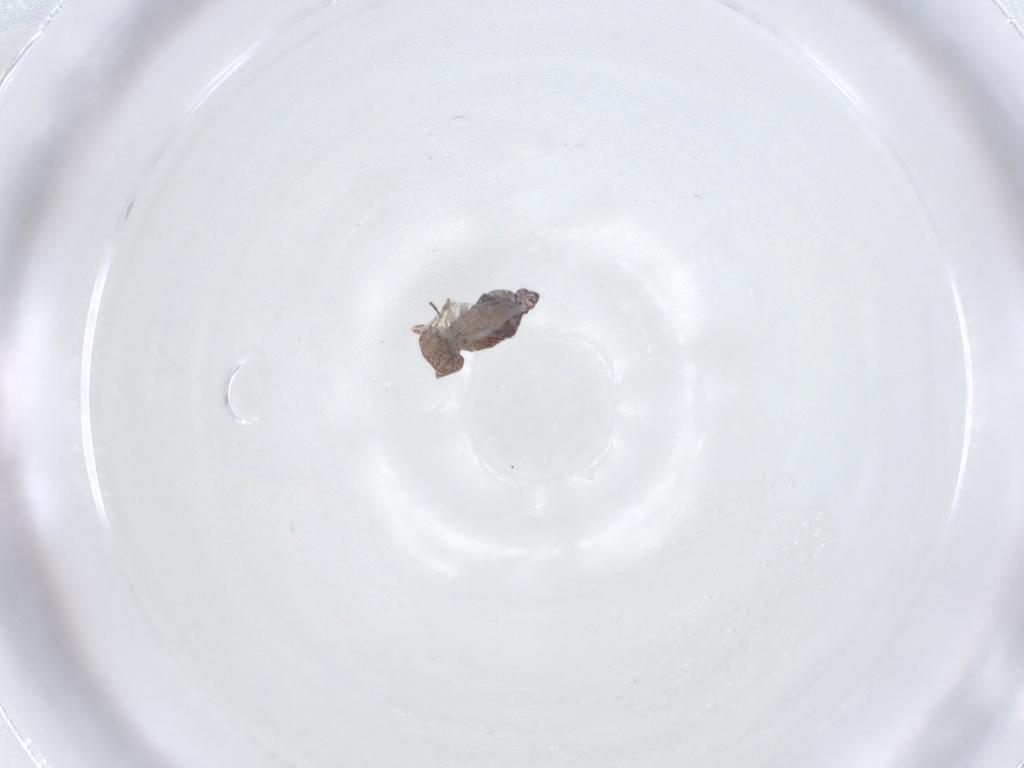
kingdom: Animalia
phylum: Arthropoda
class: Collembola
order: Symphypleona
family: Bourletiellidae
